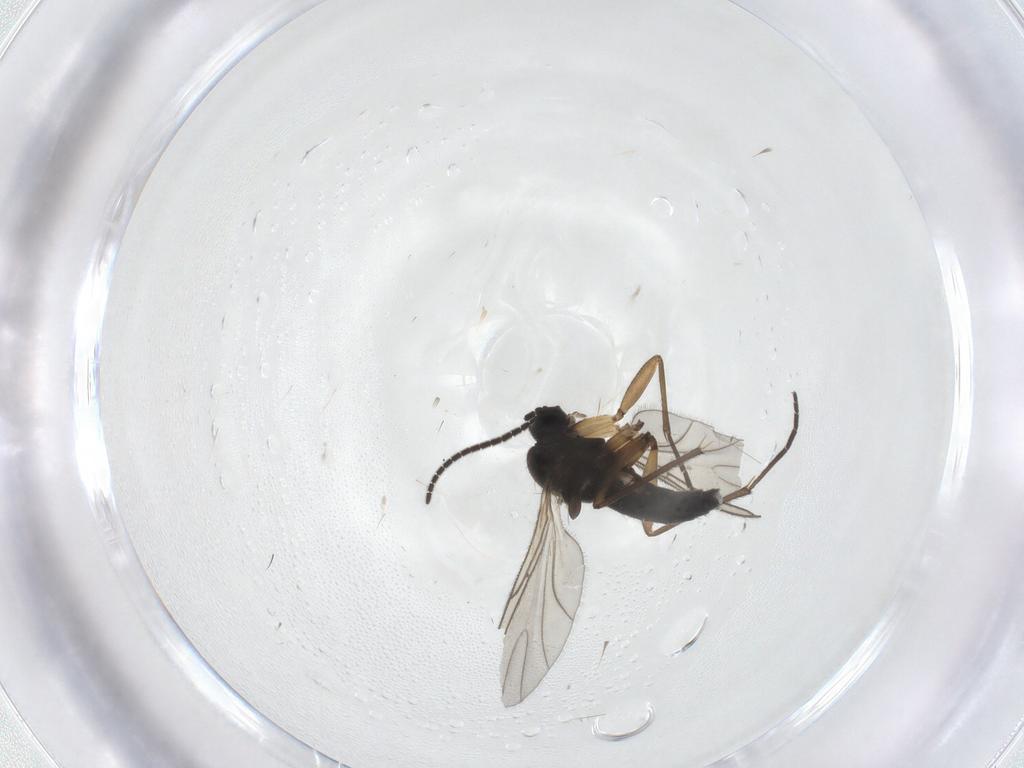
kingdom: Animalia
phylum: Arthropoda
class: Insecta
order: Diptera
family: Sciaridae
